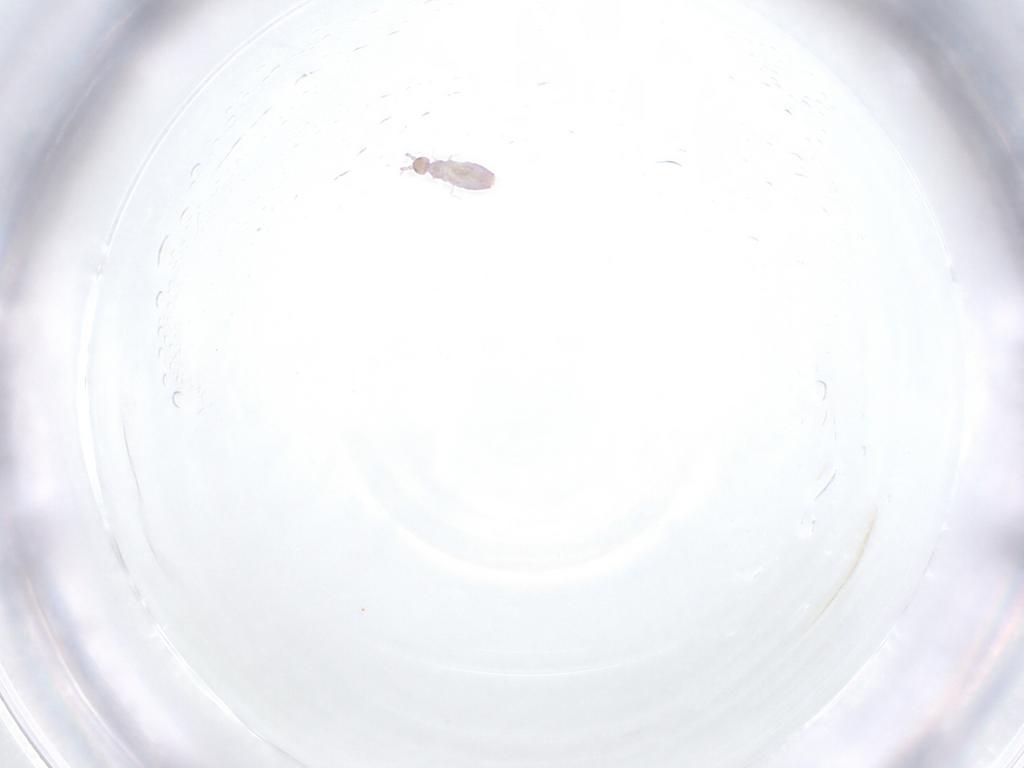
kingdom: Animalia
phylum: Arthropoda
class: Collembola
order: Entomobryomorpha
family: Entomobryidae
